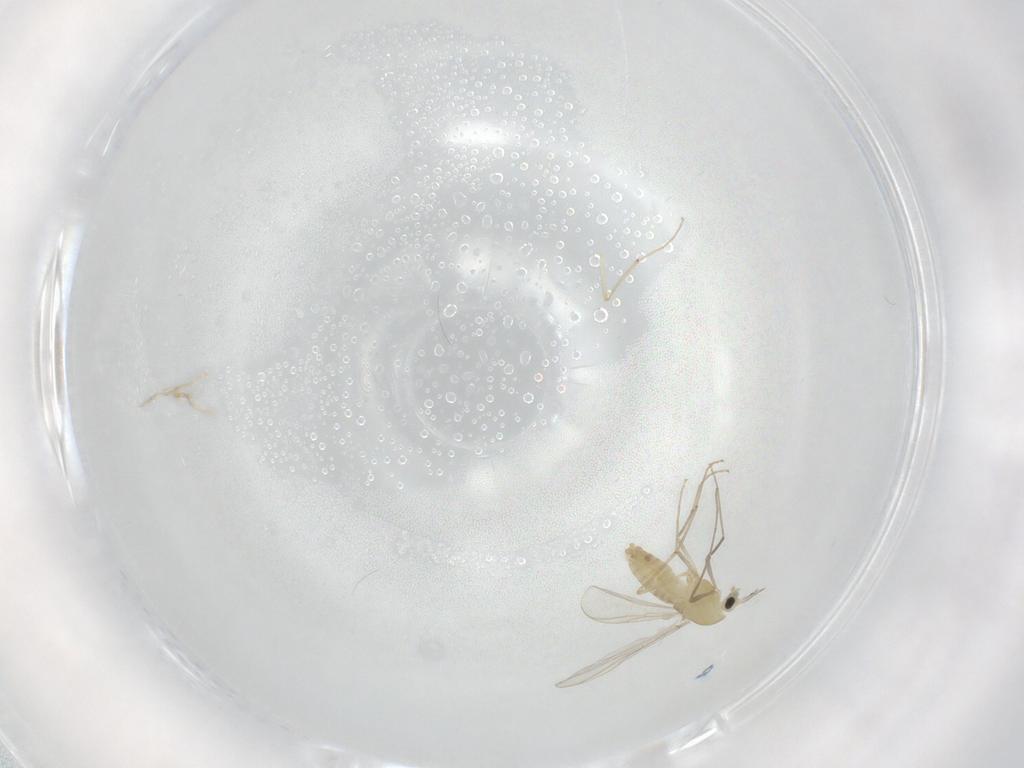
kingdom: Animalia
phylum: Arthropoda
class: Insecta
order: Diptera
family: Chironomidae
